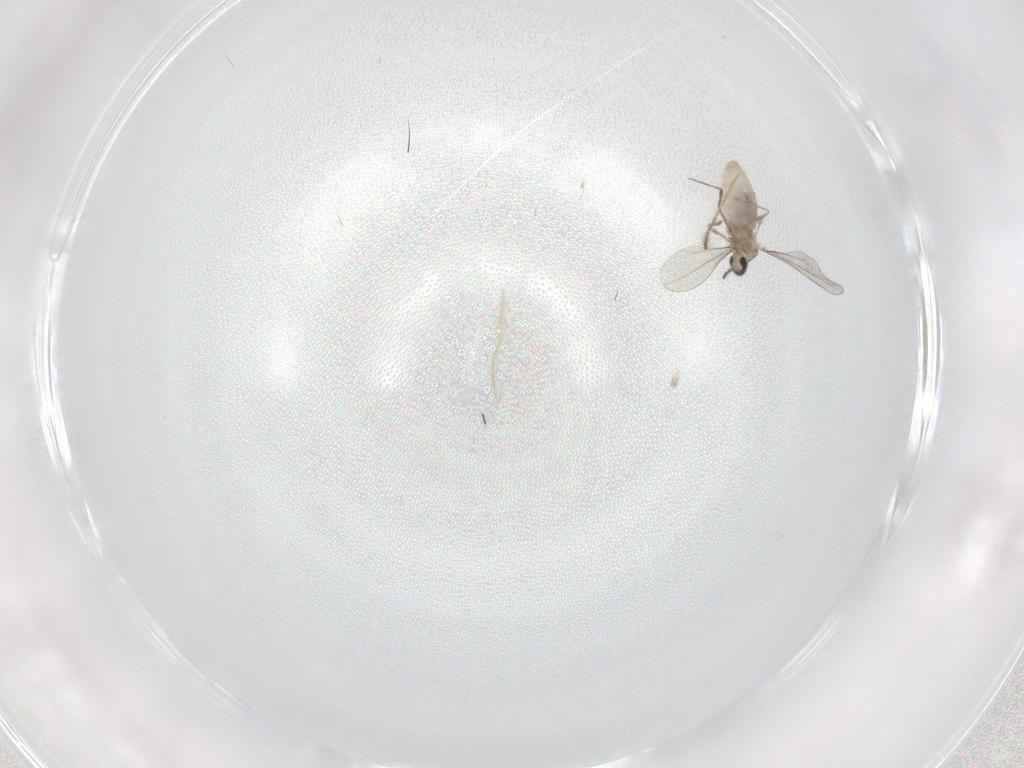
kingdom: Animalia
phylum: Arthropoda
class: Insecta
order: Diptera
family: Cecidomyiidae
